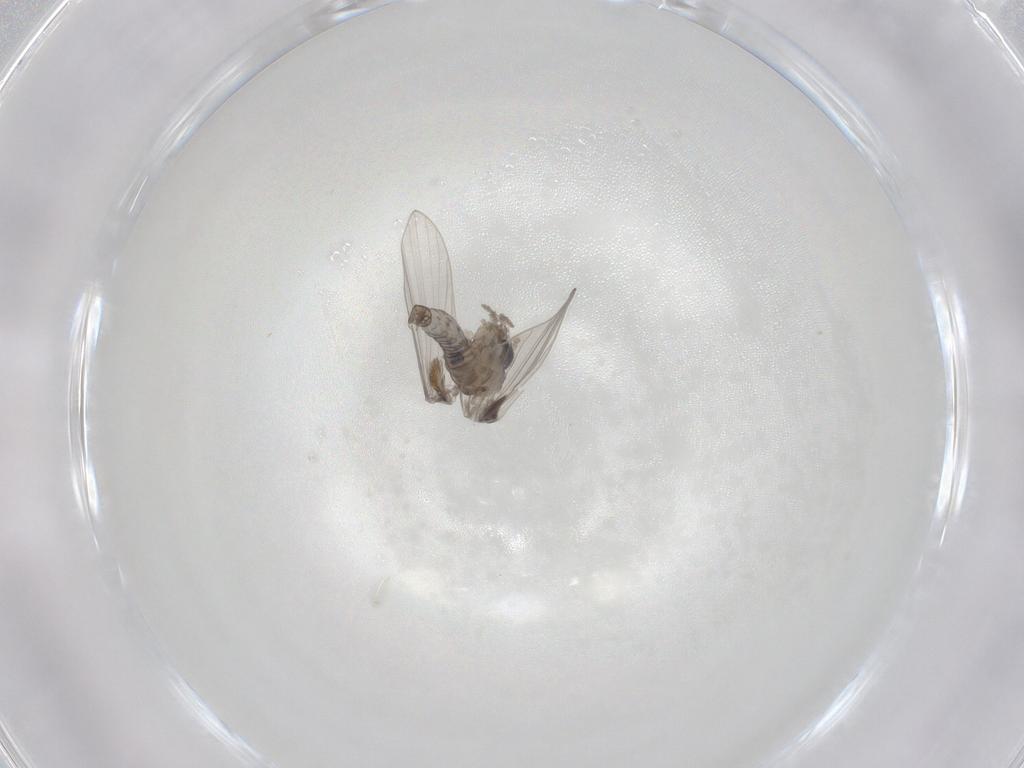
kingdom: Animalia
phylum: Arthropoda
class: Insecta
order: Diptera
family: Psychodidae
